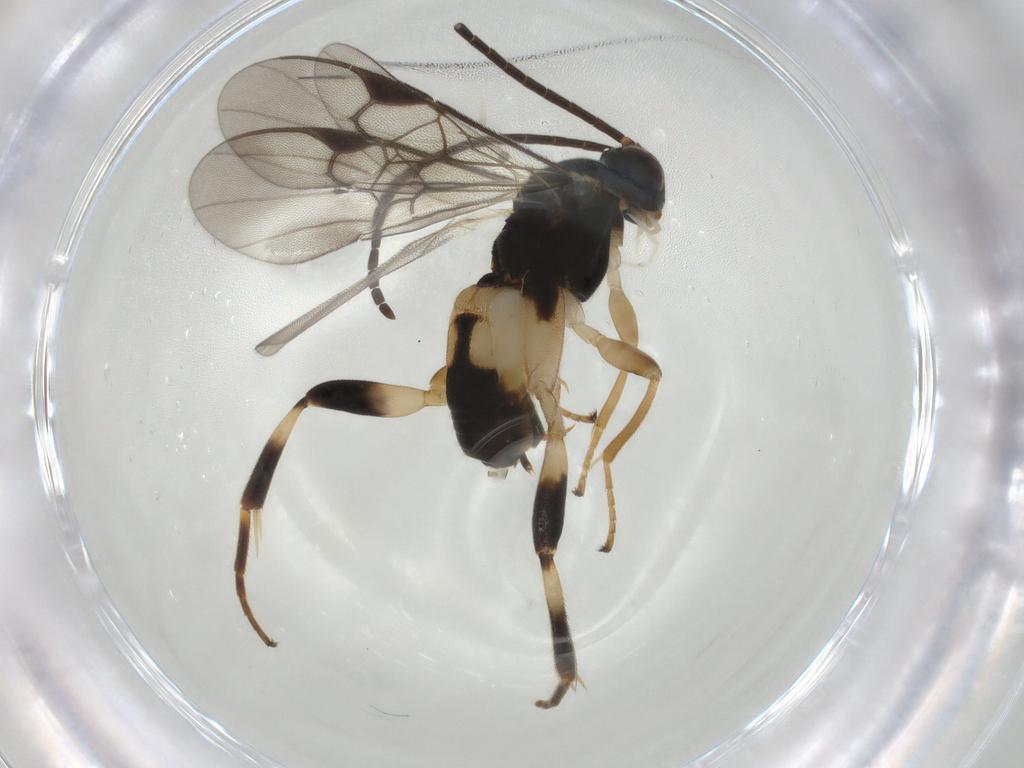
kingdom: Animalia
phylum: Arthropoda
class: Insecta
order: Hymenoptera
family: Braconidae
